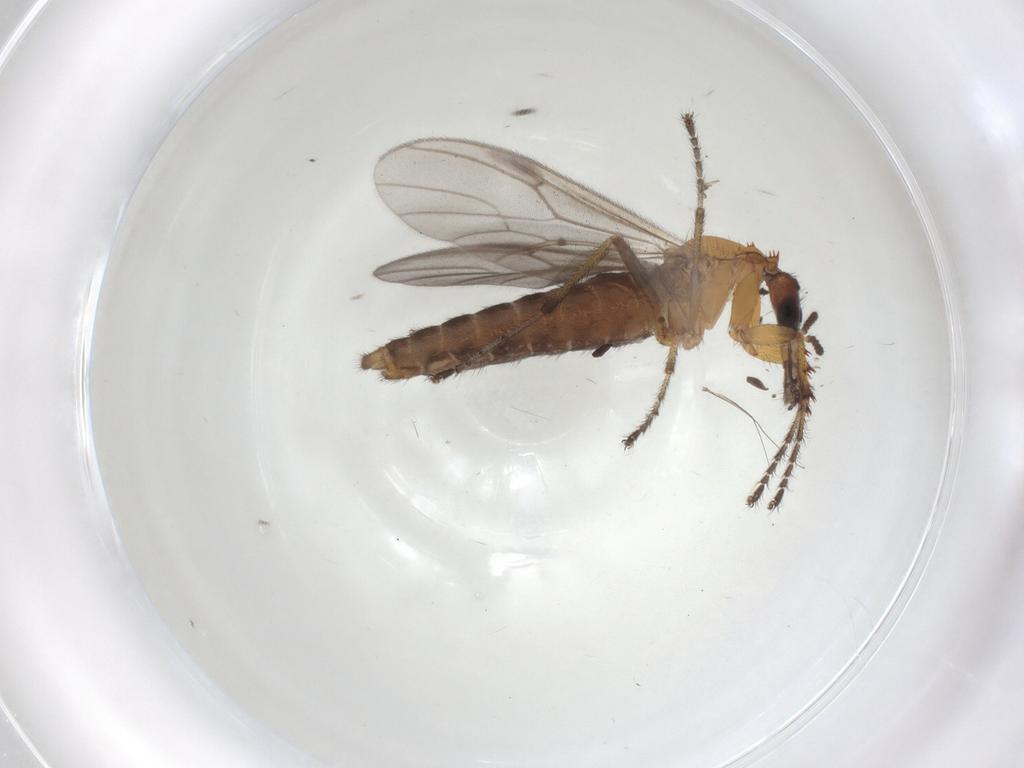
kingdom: Animalia
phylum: Arthropoda
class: Insecta
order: Diptera
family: Bibionidae
